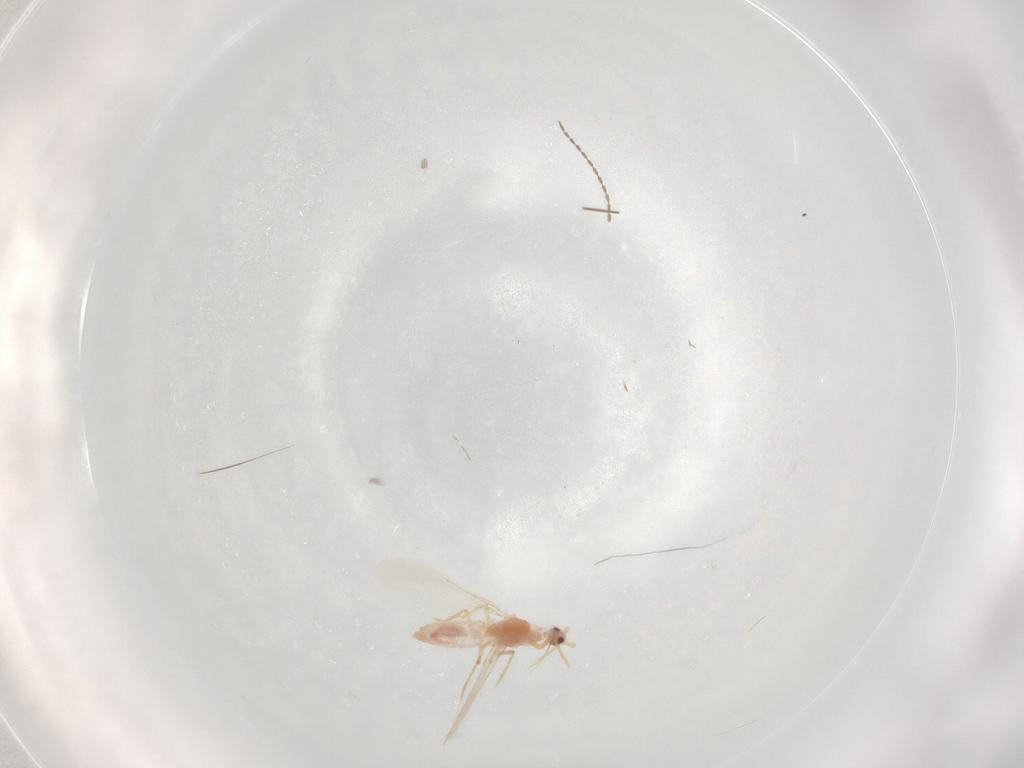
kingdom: Animalia
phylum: Arthropoda
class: Insecta
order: Diptera
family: Cecidomyiidae
